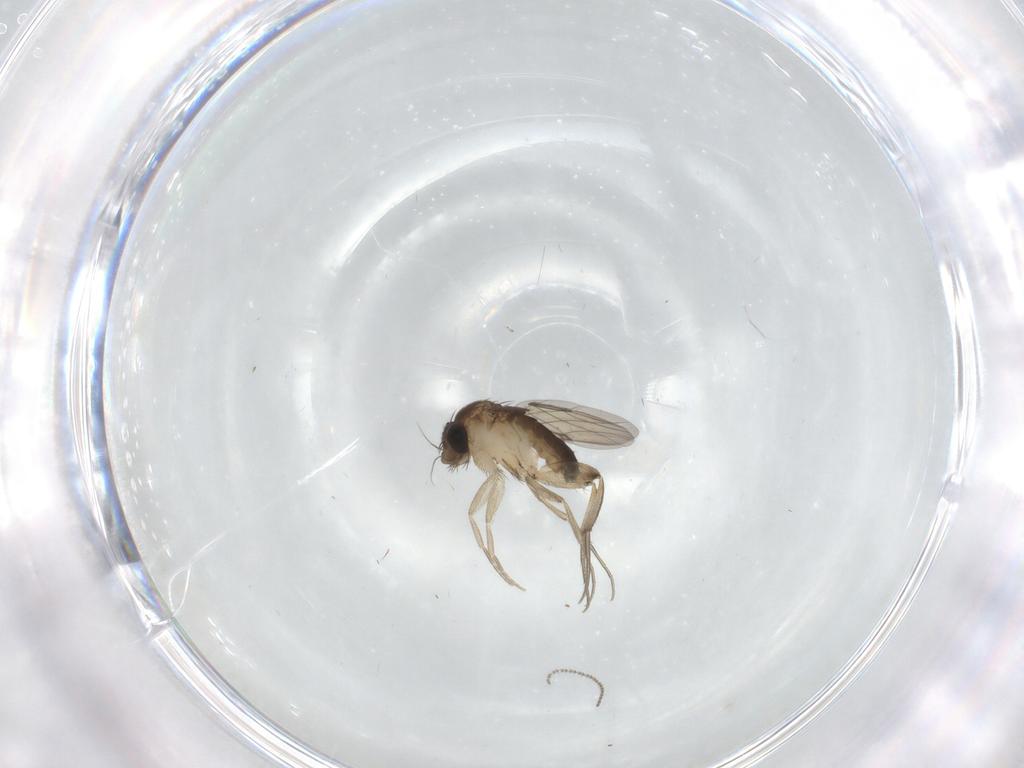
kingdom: Animalia
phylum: Arthropoda
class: Insecta
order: Diptera
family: Phoridae
